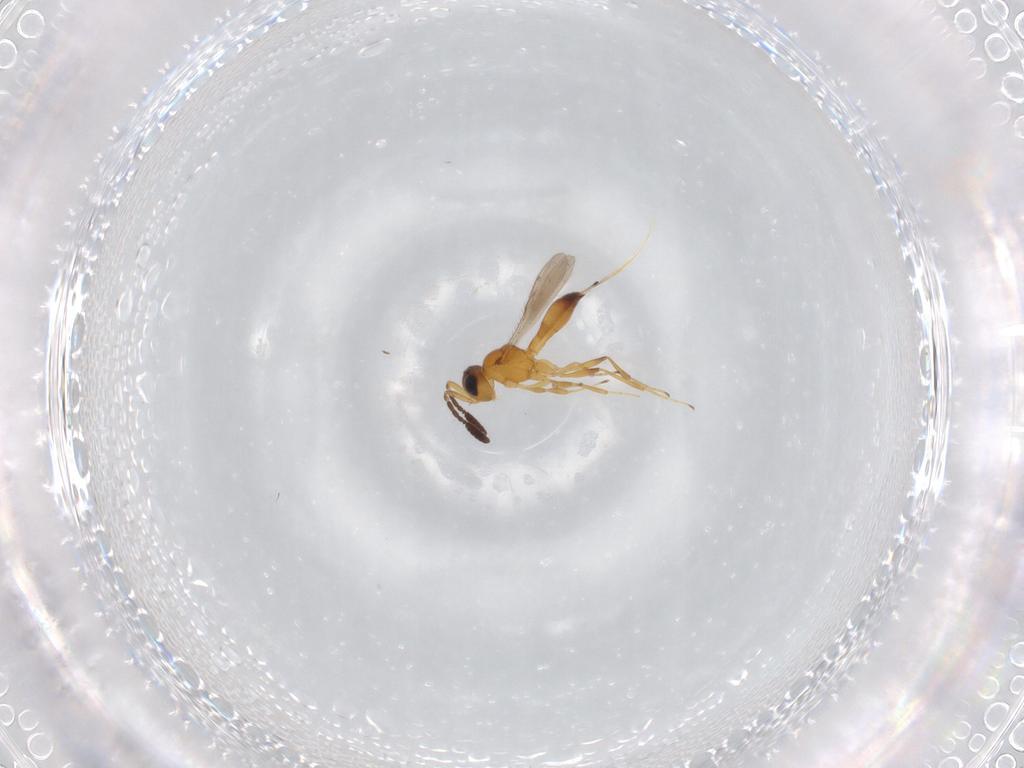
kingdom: Animalia
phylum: Arthropoda
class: Insecta
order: Hymenoptera
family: Scelionidae
